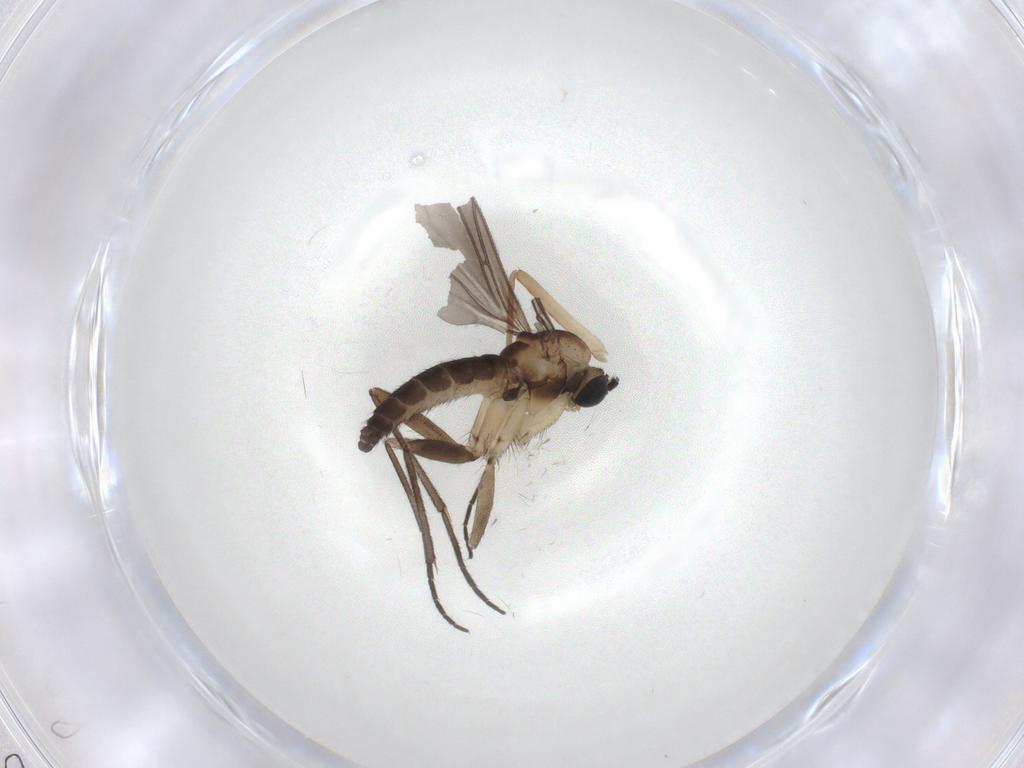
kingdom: Animalia
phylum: Arthropoda
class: Insecta
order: Diptera
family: Sciaridae
